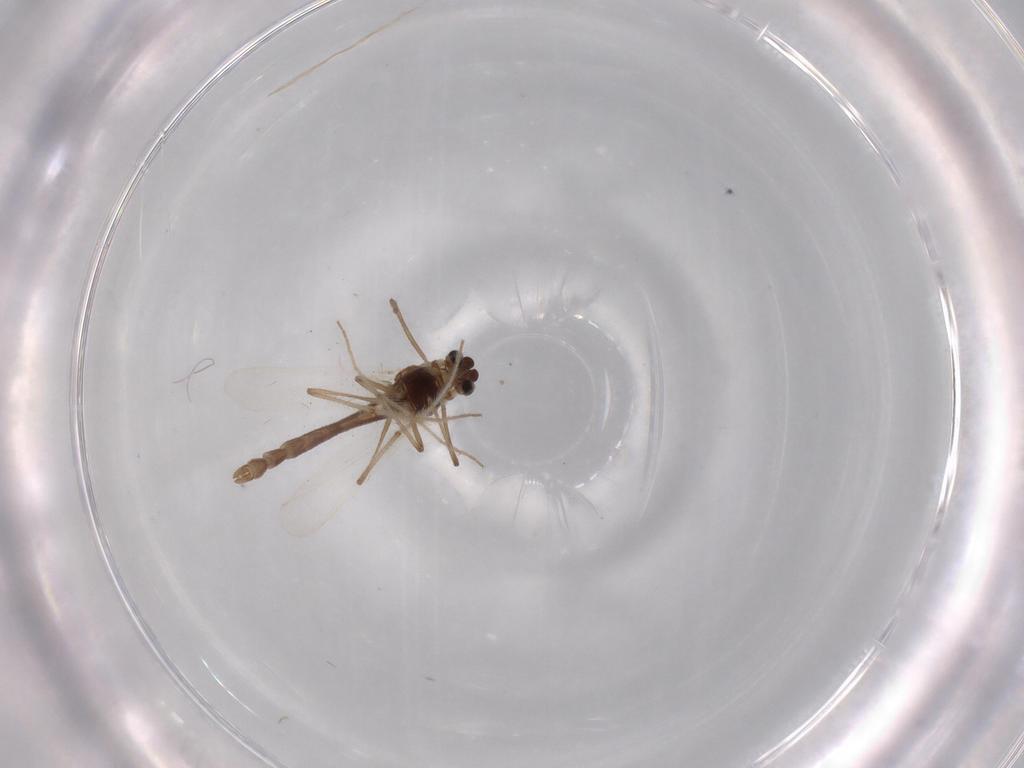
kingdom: Animalia
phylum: Arthropoda
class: Insecta
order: Diptera
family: Chironomidae
